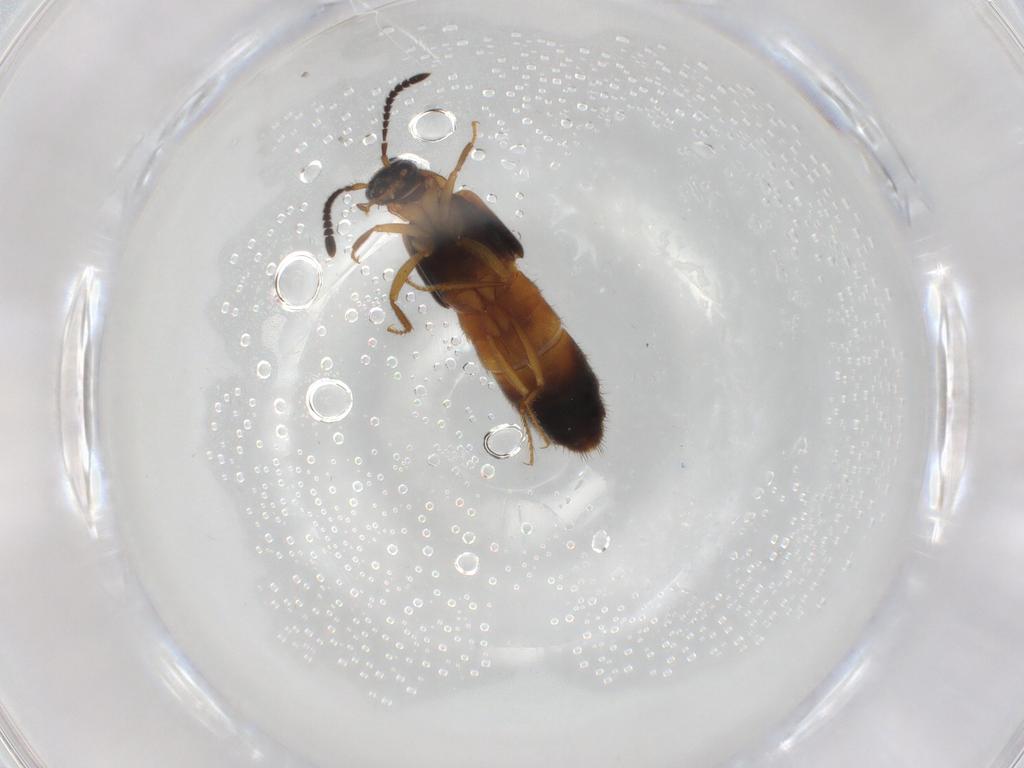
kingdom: Animalia
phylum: Arthropoda
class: Insecta
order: Coleoptera
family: Staphylinidae
